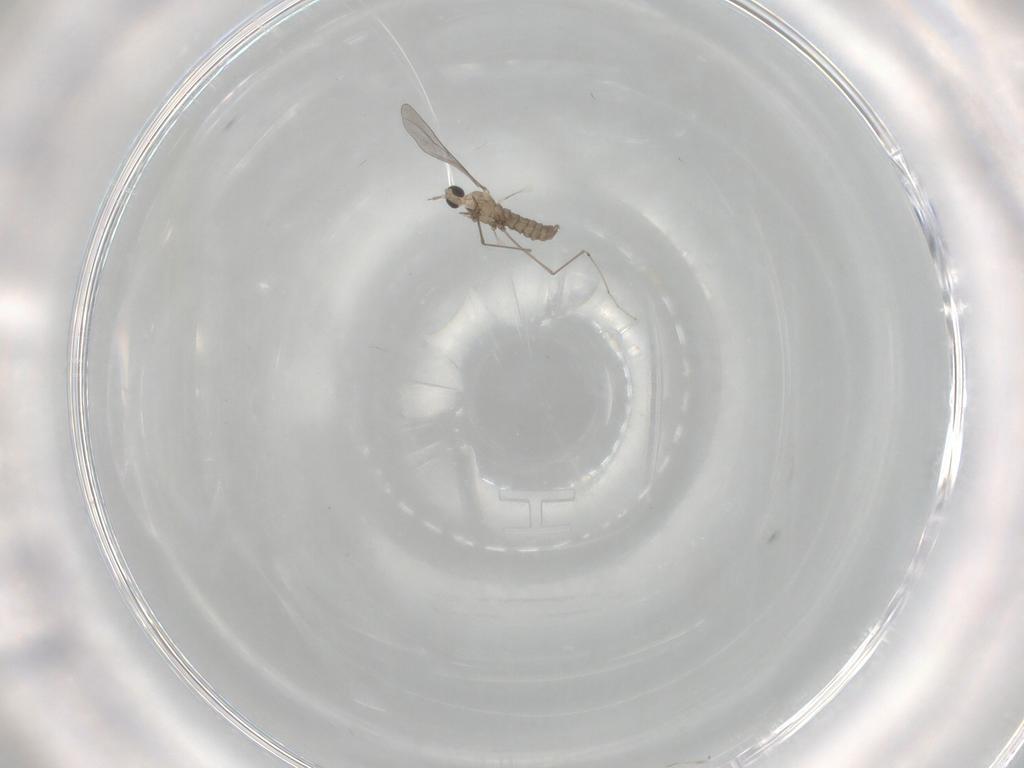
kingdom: Animalia
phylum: Arthropoda
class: Insecta
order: Diptera
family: Cecidomyiidae
